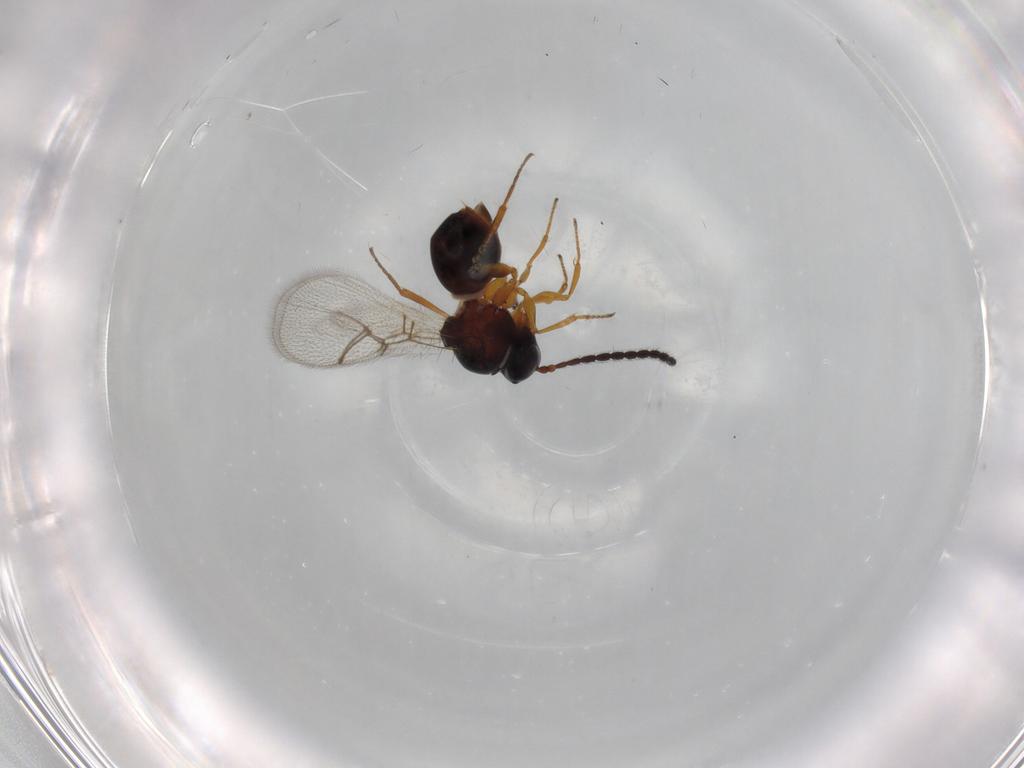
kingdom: Animalia
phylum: Arthropoda
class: Insecta
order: Hymenoptera
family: Figitidae
